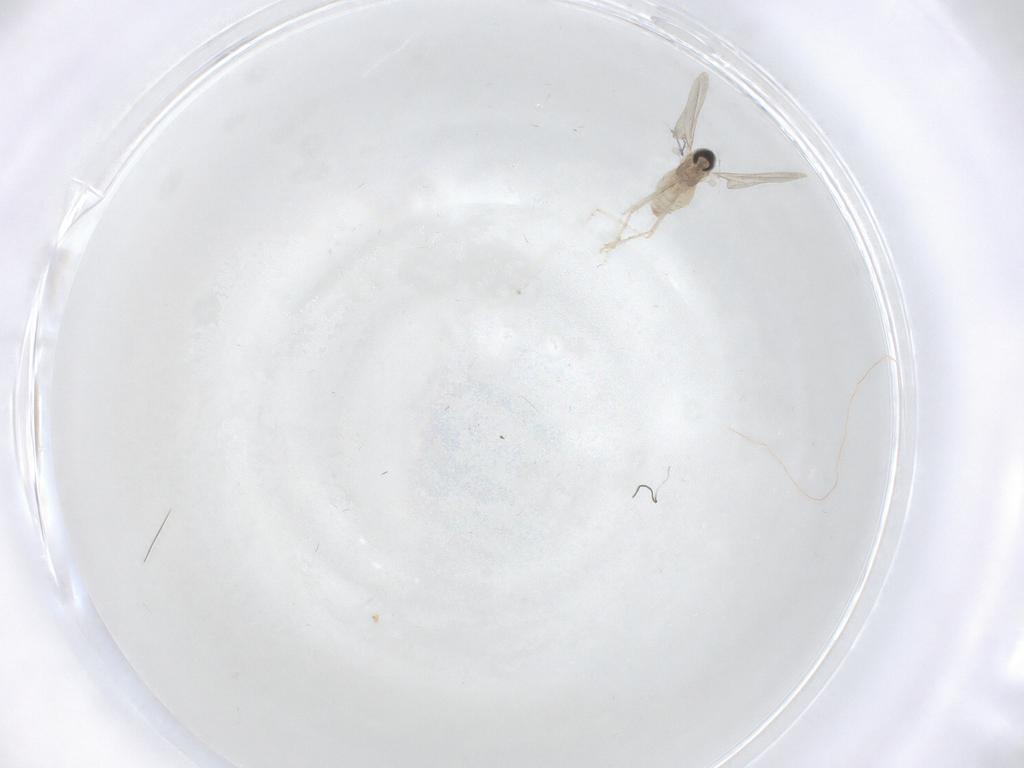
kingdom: Animalia
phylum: Arthropoda
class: Insecta
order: Diptera
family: Cecidomyiidae
